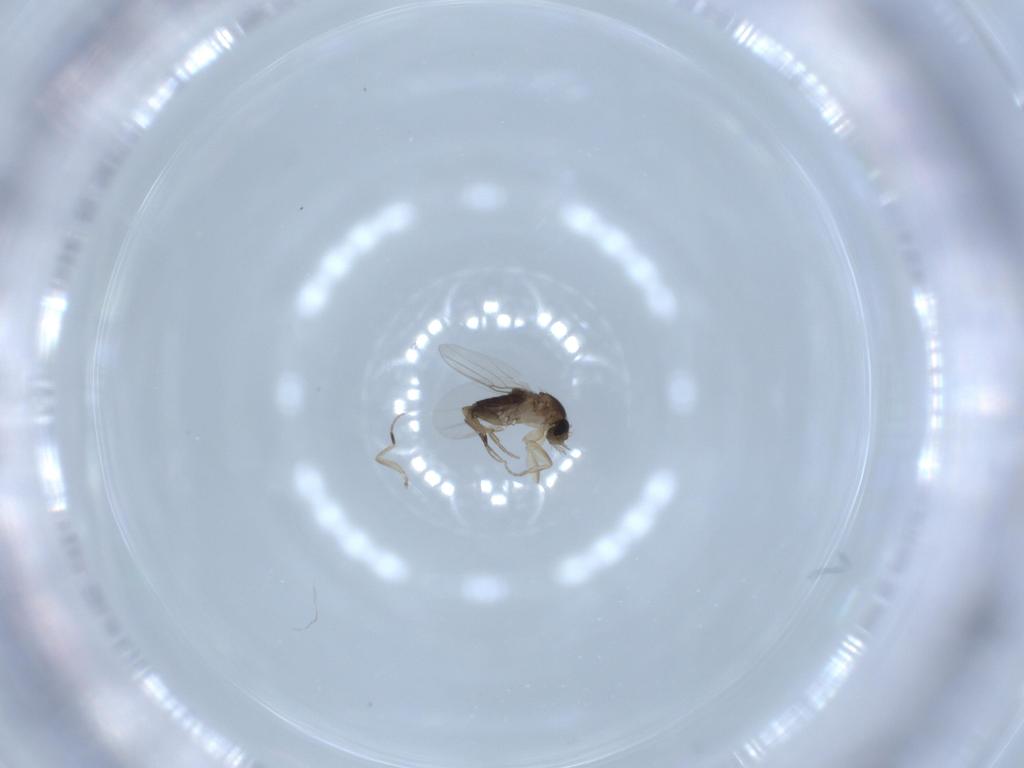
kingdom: Animalia
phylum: Arthropoda
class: Insecta
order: Diptera
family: Phoridae
